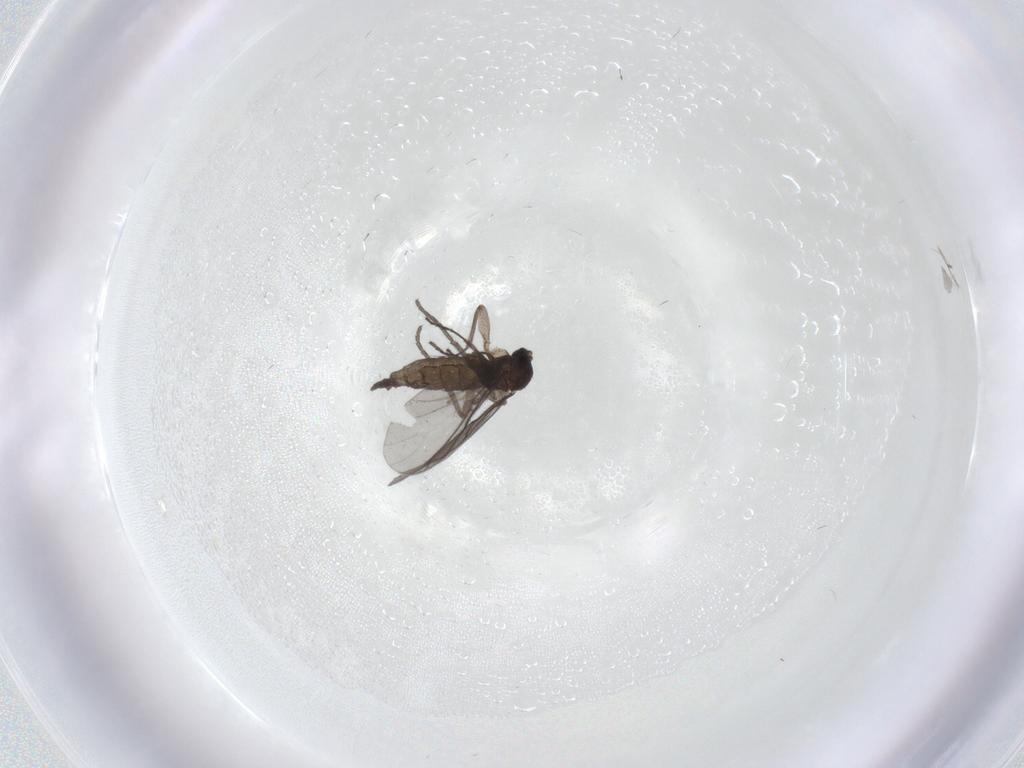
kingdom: Animalia
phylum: Arthropoda
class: Insecta
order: Diptera
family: Cecidomyiidae
